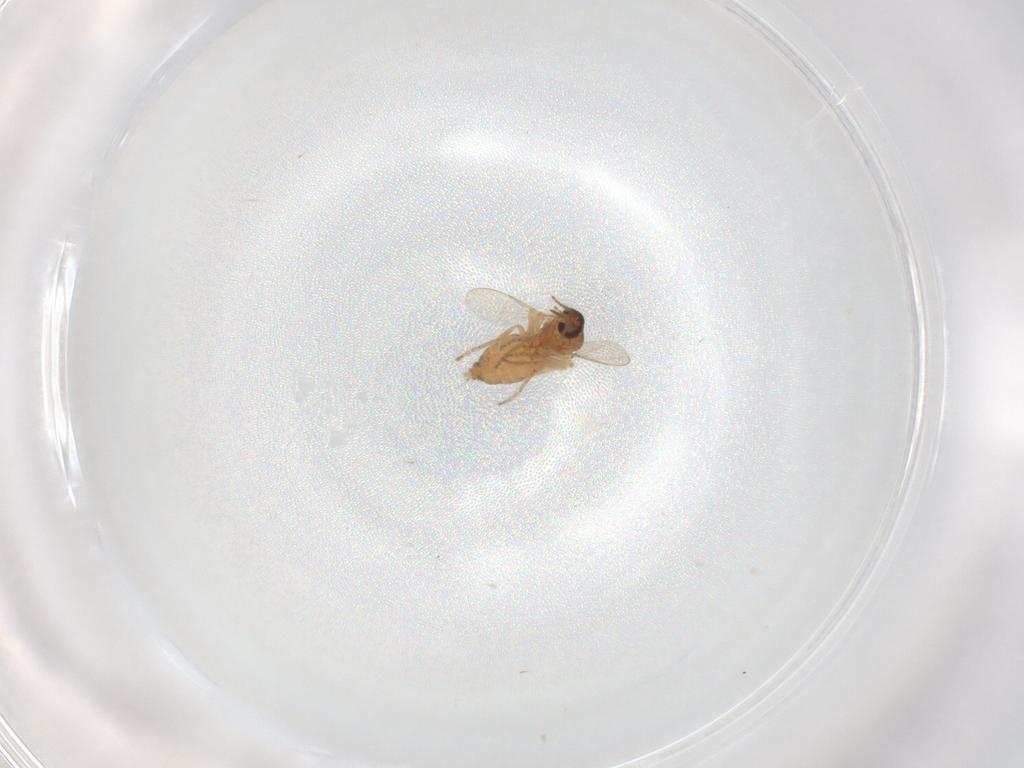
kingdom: Animalia
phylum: Arthropoda
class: Insecta
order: Diptera
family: Ceratopogonidae
